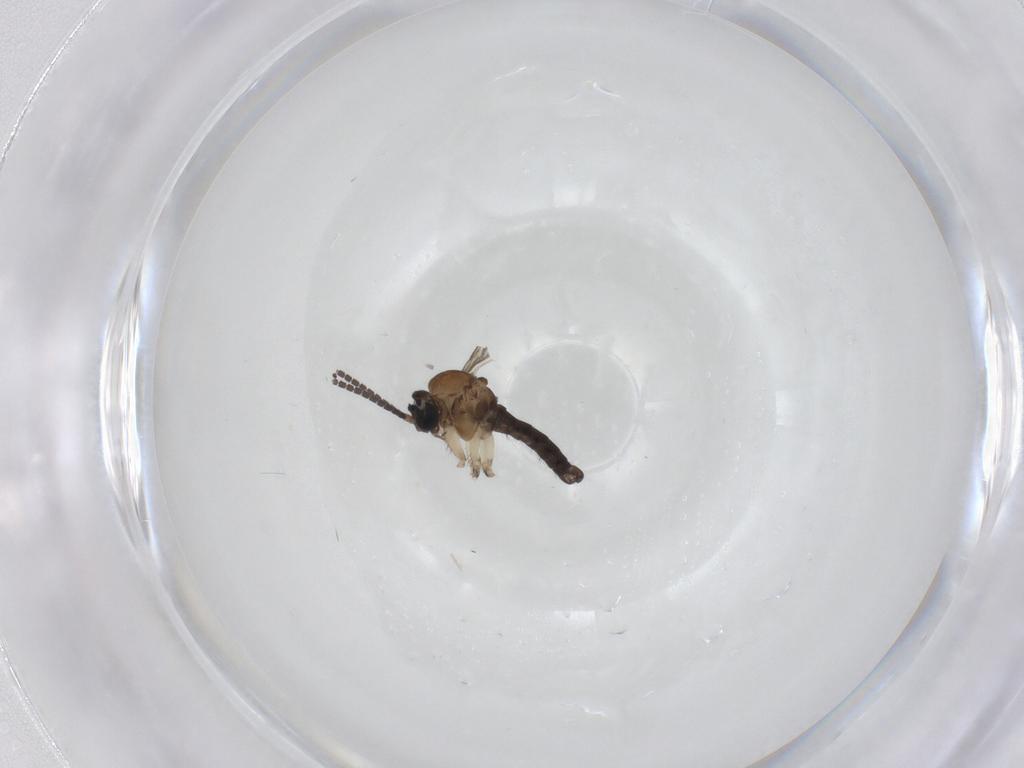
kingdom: Animalia
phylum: Arthropoda
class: Insecta
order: Diptera
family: Sciaridae
